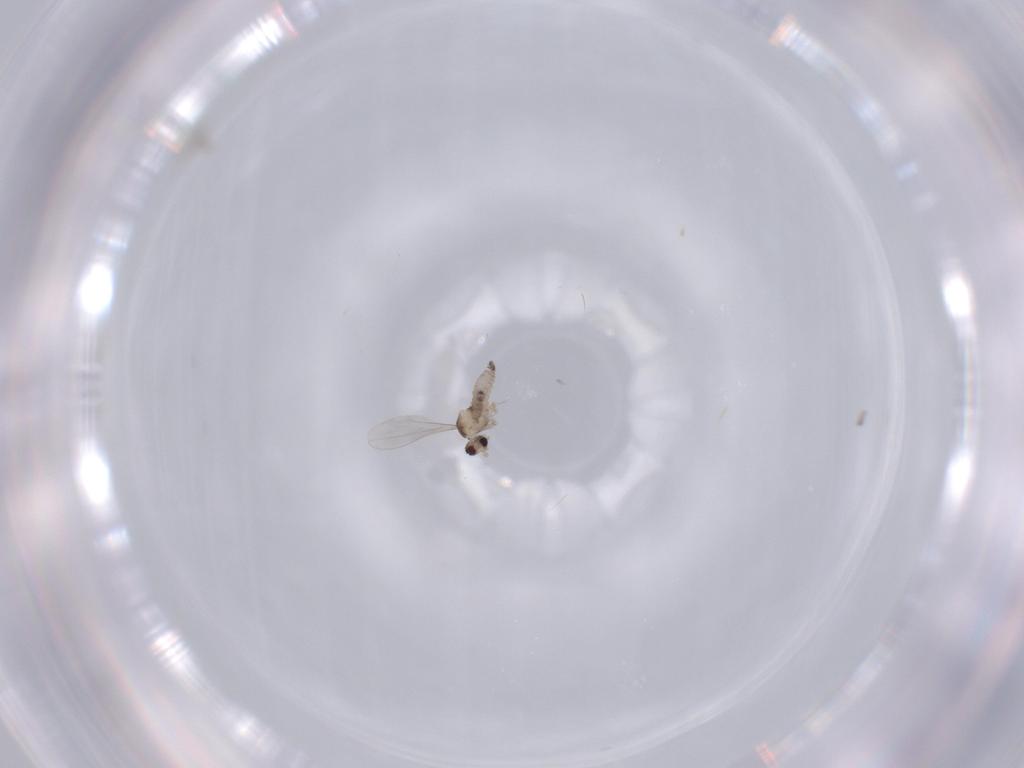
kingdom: Animalia
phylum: Arthropoda
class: Insecta
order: Diptera
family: Cecidomyiidae
